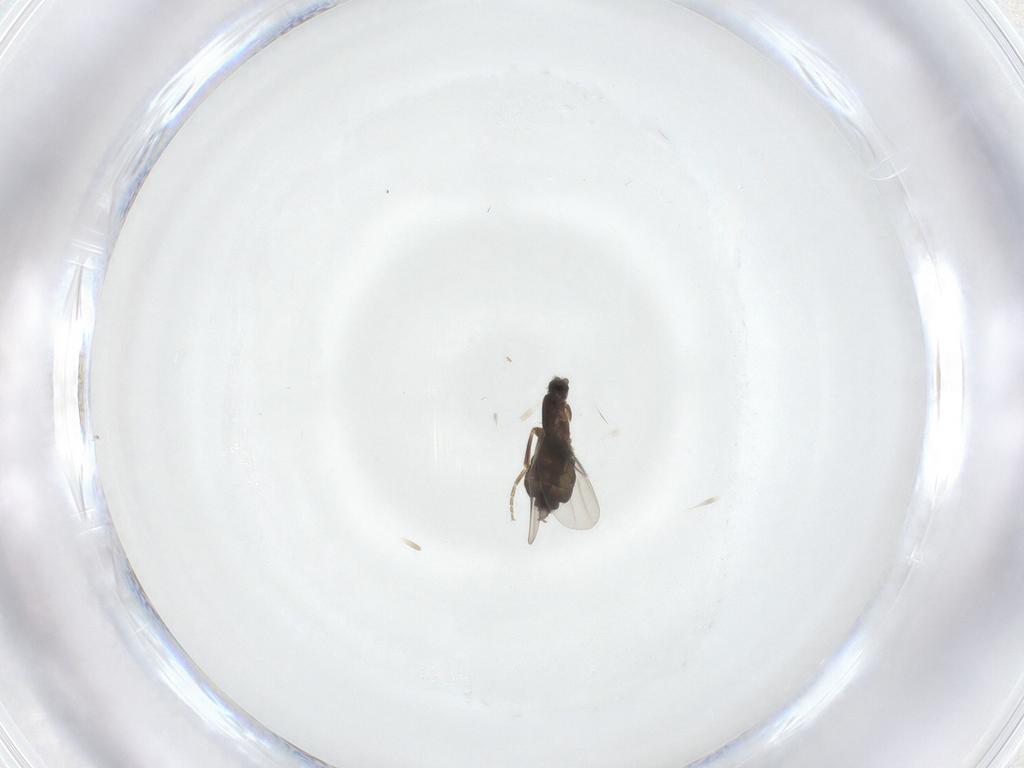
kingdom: Animalia
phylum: Arthropoda
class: Insecta
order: Diptera
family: Phoridae
